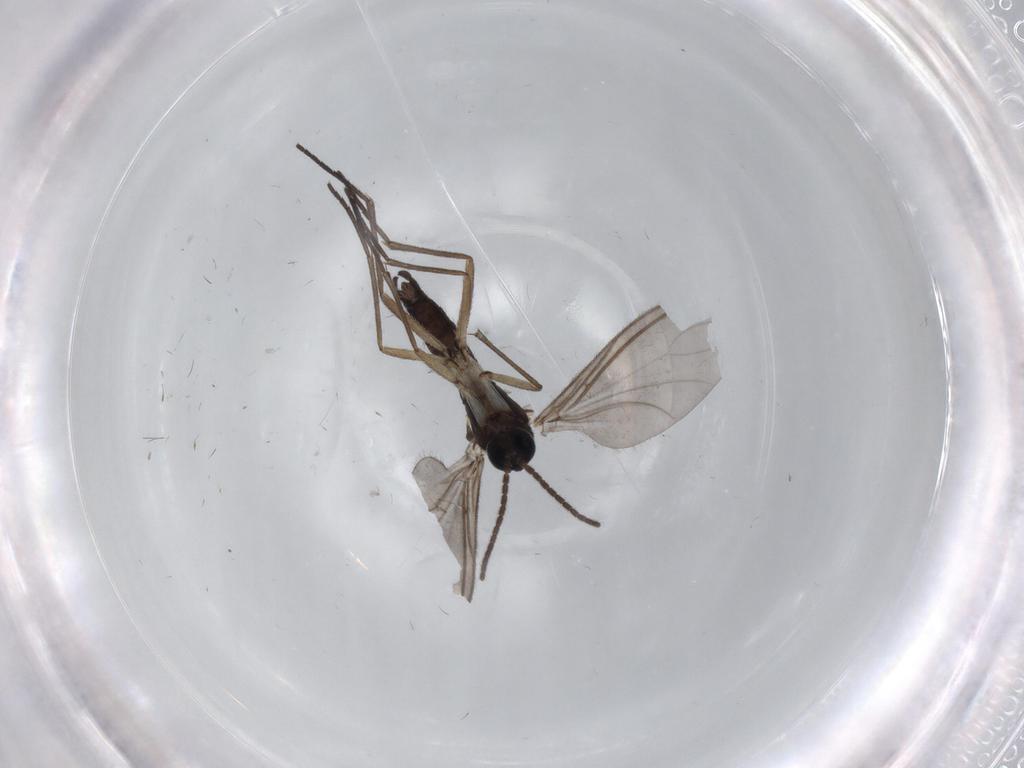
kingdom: Animalia
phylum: Arthropoda
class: Insecta
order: Diptera
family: Sciaridae
